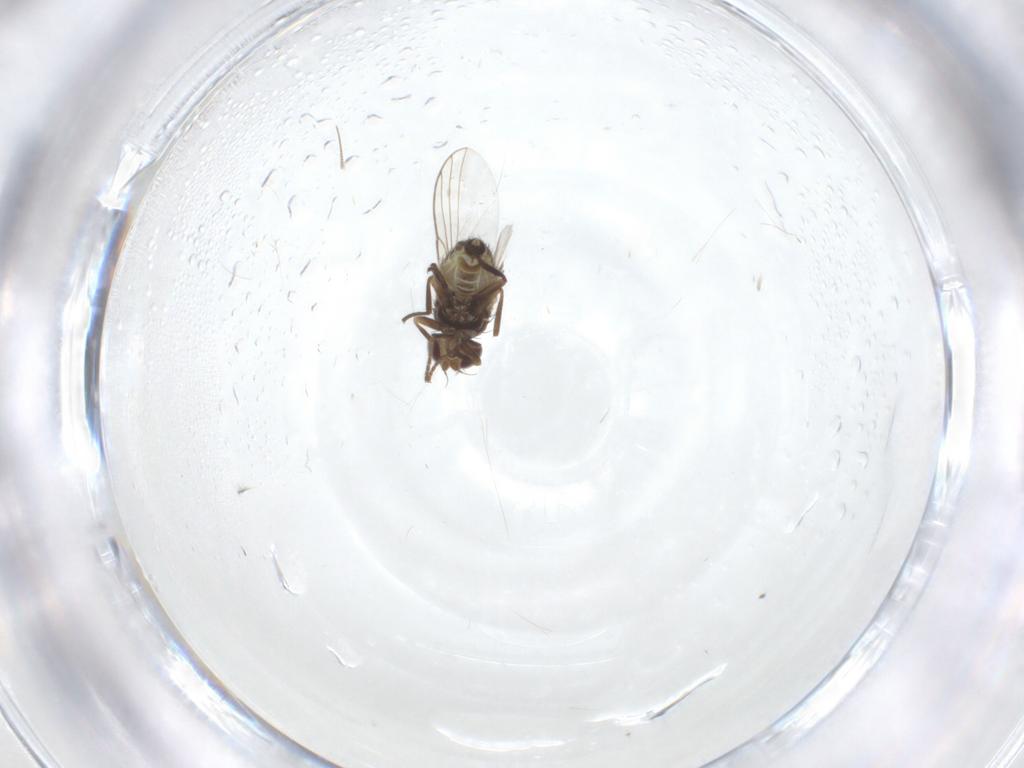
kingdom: Animalia
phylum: Arthropoda
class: Insecta
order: Diptera
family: Agromyzidae
